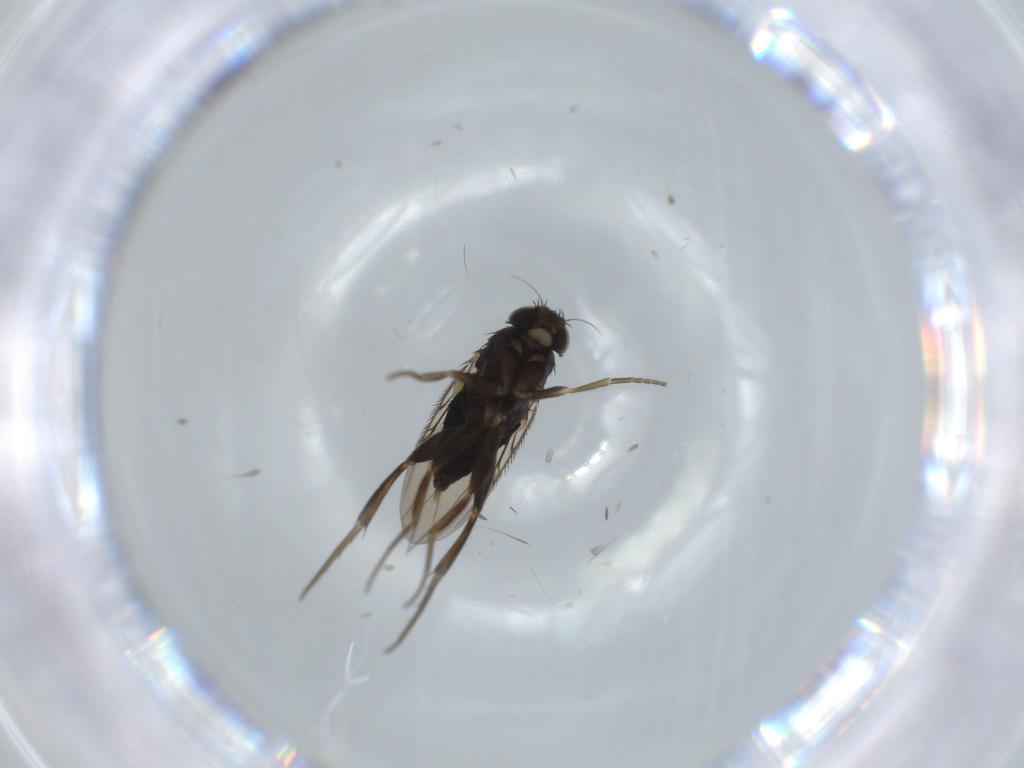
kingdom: Animalia
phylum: Arthropoda
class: Insecta
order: Diptera
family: Phoridae
